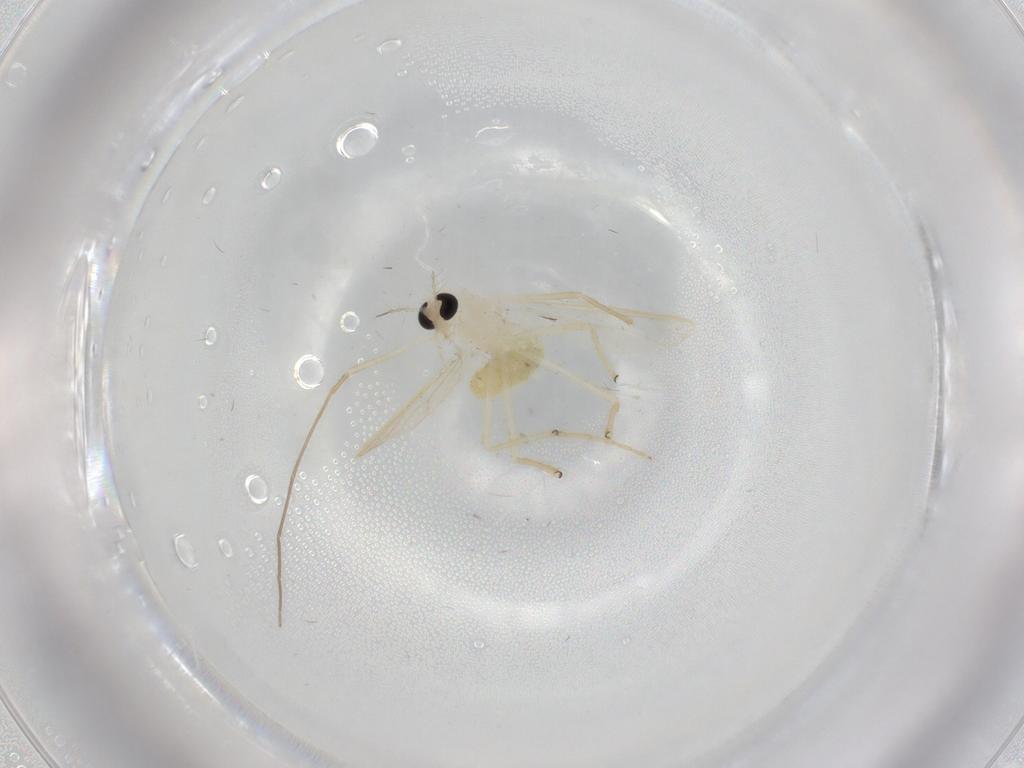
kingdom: Animalia
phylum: Arthropoda
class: Insecta
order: Diptera
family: Chironomidae
